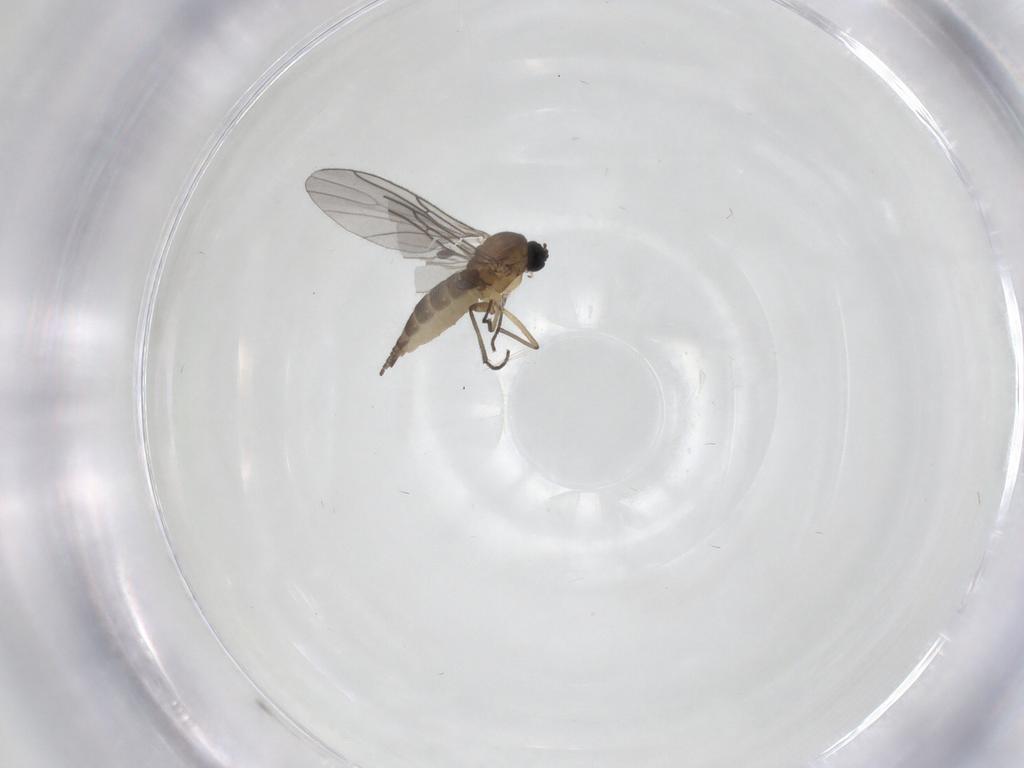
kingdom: Animalia
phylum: Arthropoda
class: Insecta
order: Diptera
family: Sciaridae
